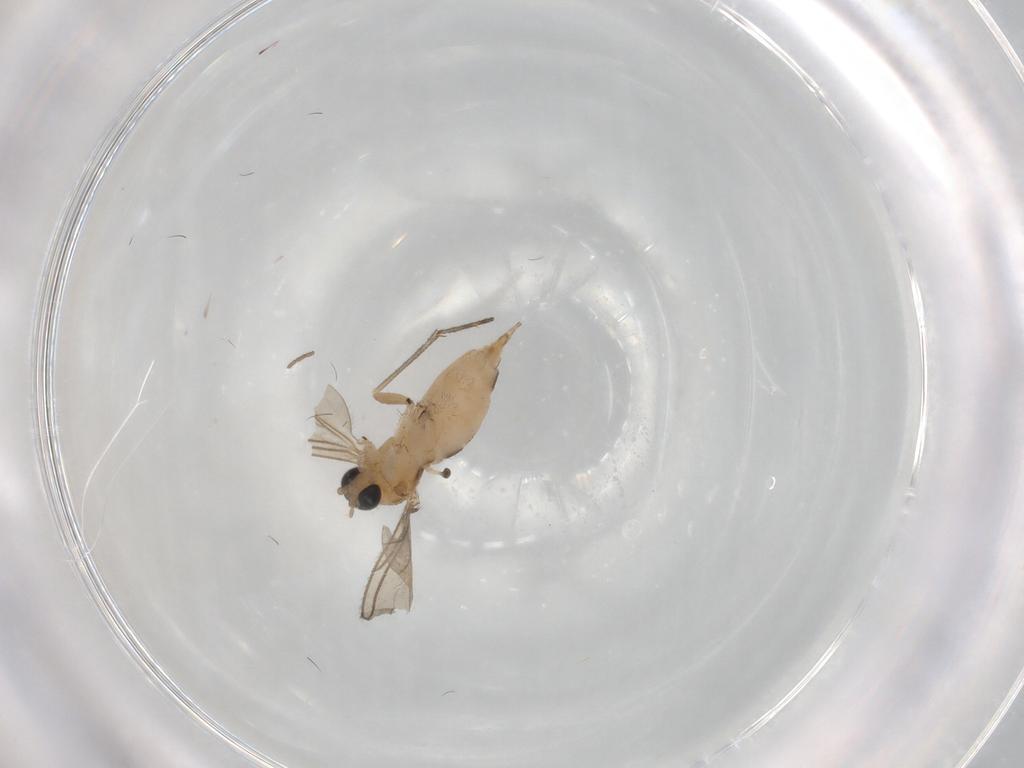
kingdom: Animalia
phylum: Arthropoda
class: Insecta
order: Diptera
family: Sciaridae
